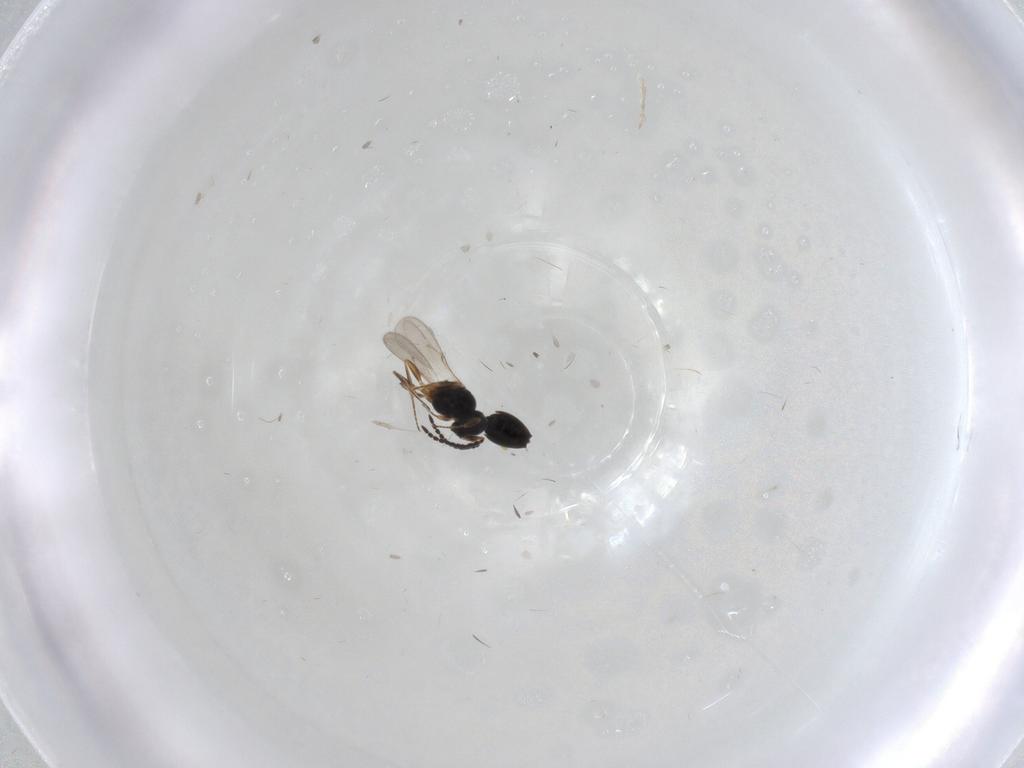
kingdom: Animalia
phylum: Arthropoda
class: Insecta
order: Hymenoptera
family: Scelionidae
